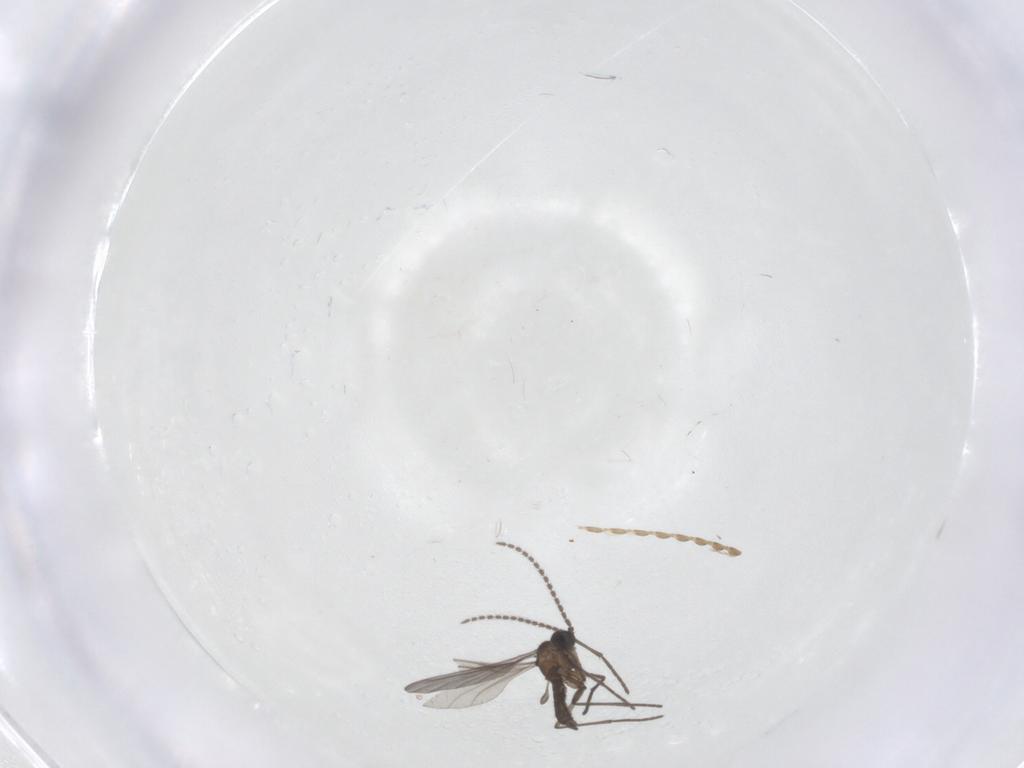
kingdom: Animalia
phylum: Arthropoda
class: Insecta
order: Diptera
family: Sciaridae
